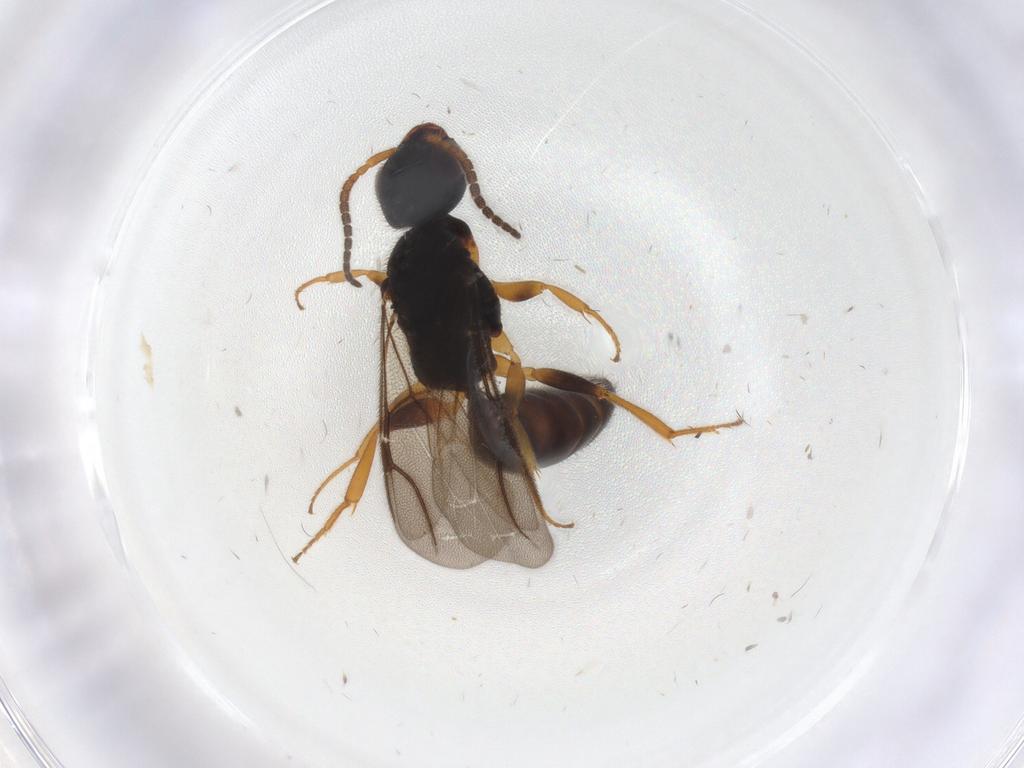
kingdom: Animalia
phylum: Arthropoda
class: Insecta
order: Hymenoptera
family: Bethylidae
